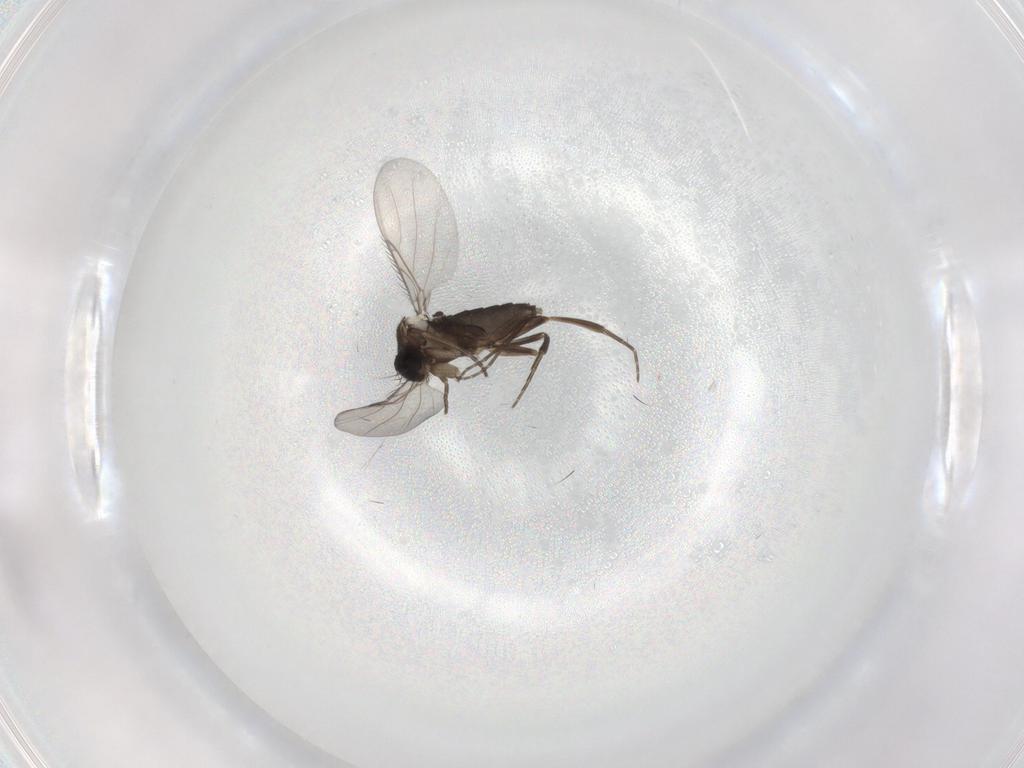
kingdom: Animalia
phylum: Arthropoda
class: Insecta
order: Diptera
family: Phoridae
